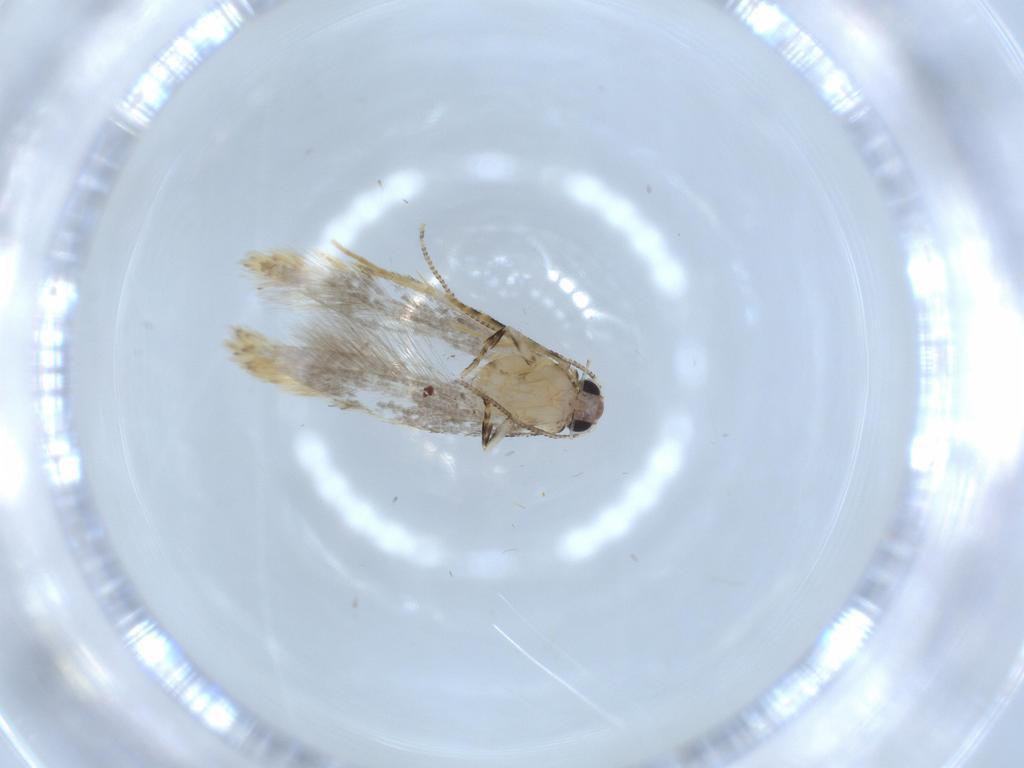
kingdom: Animalia
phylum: Arthropoda
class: Insecta
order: Lepidoptera
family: Tineidae
